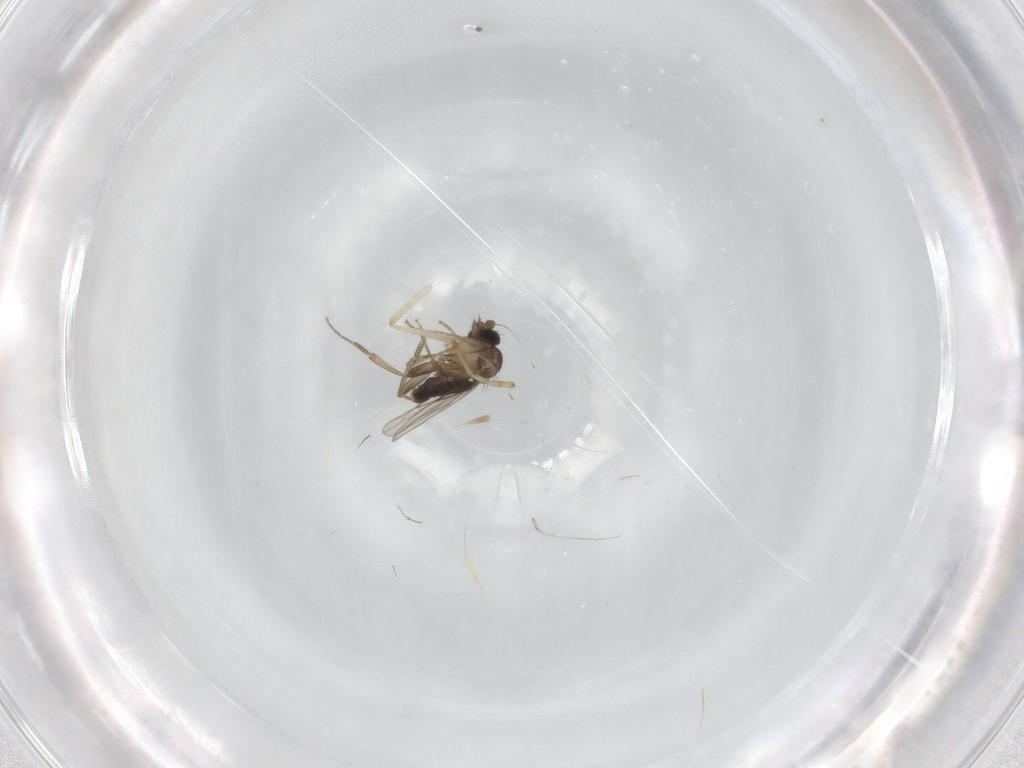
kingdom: Animalia
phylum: Arthropoda
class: Insecta
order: Diptera
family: Phoridae
